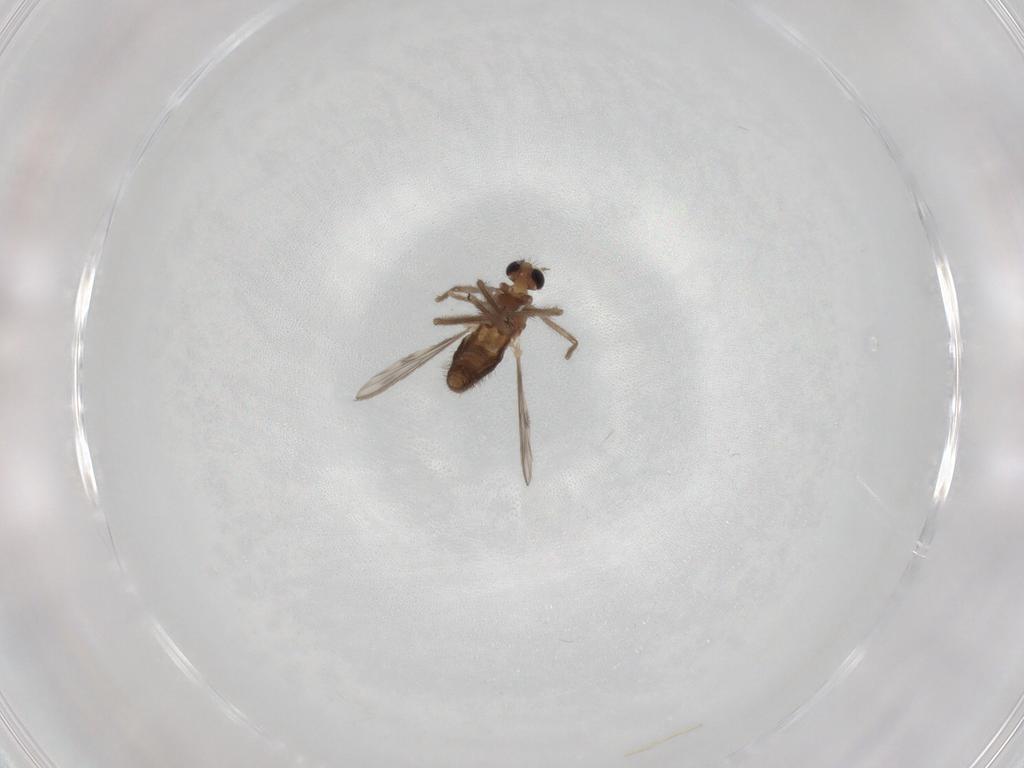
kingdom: Animalia
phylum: Arthropoda
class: Insecta
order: Diptera
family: Chironomidae
